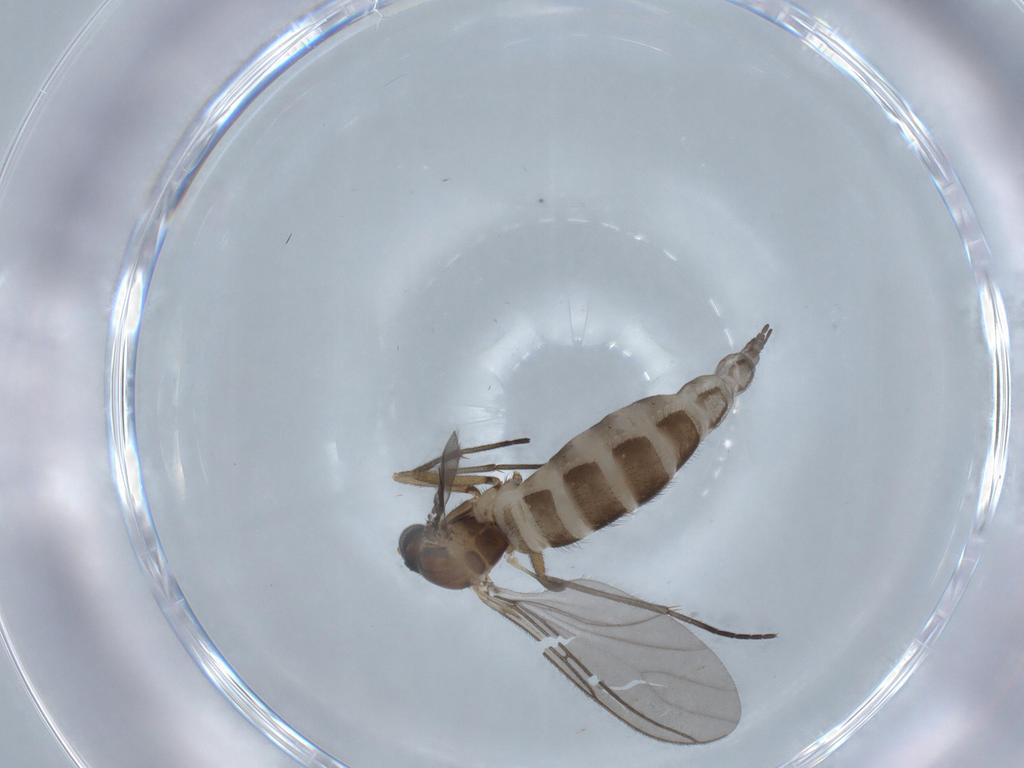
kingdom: Animalia
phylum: Arthropoda
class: Insecta
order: Diptera
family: Sciaridae
